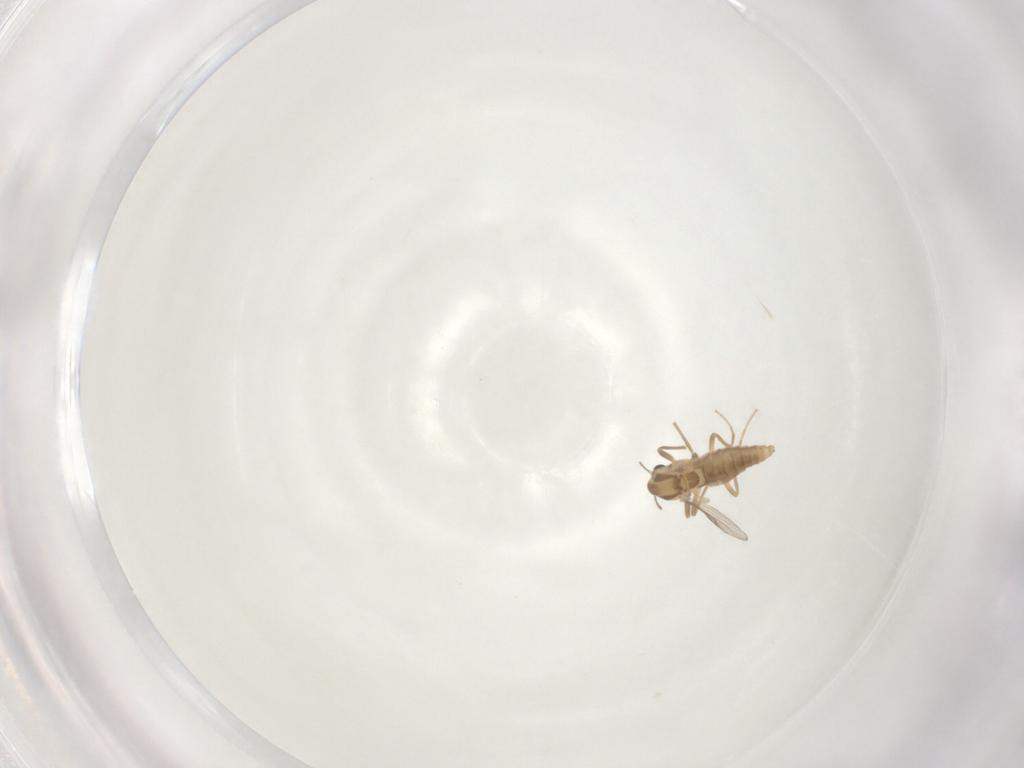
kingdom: Animalia
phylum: Arthropoda
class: Insecta
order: Diptera
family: Chironomidae
